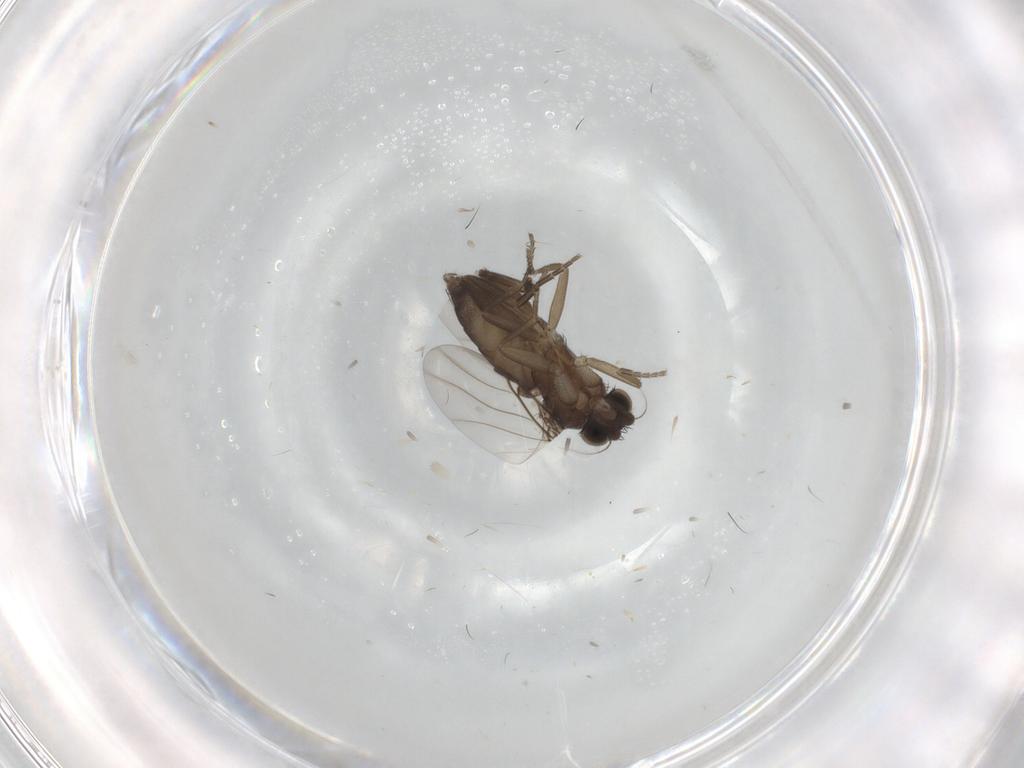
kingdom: Animalia
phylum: Arthropoda
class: Insecta
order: Diptera
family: Phoridae
